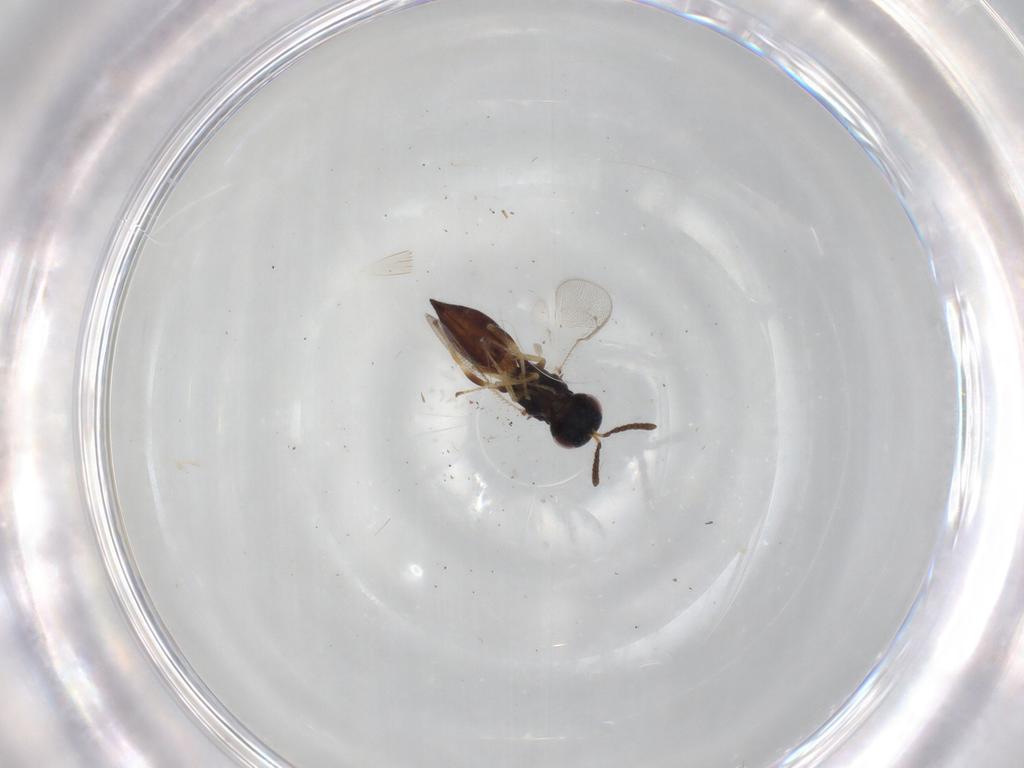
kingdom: Animalia
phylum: Arthropoda
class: Insecta
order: Hymenoptera
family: Pteromalidae
